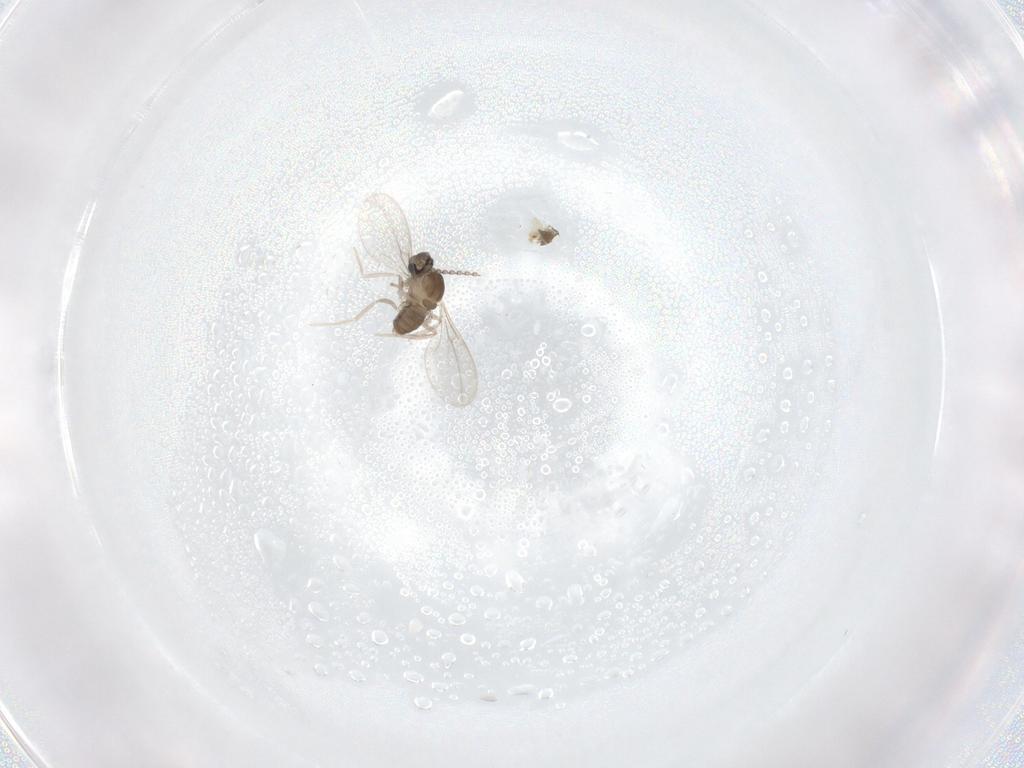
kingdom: Animalia
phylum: Arthropoda
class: Insecta
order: Diptera
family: Cecidomyiidae
